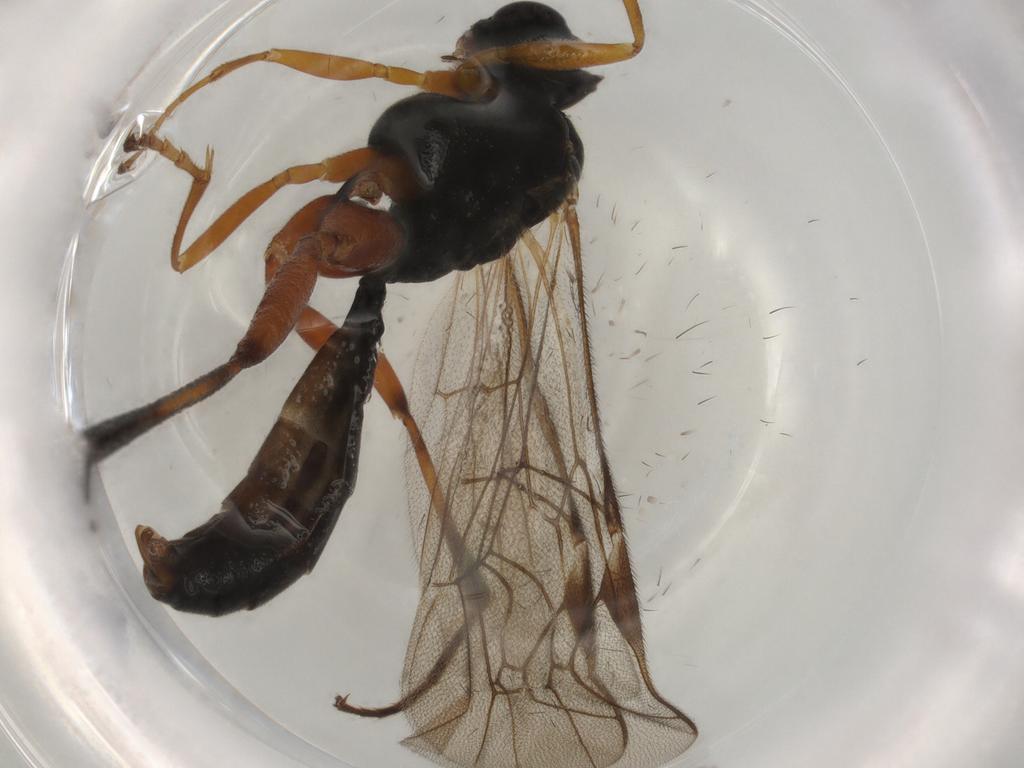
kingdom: Animalia
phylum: Arthropoda
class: Insecta
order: Hymenoptera
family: Ichneumonidae
